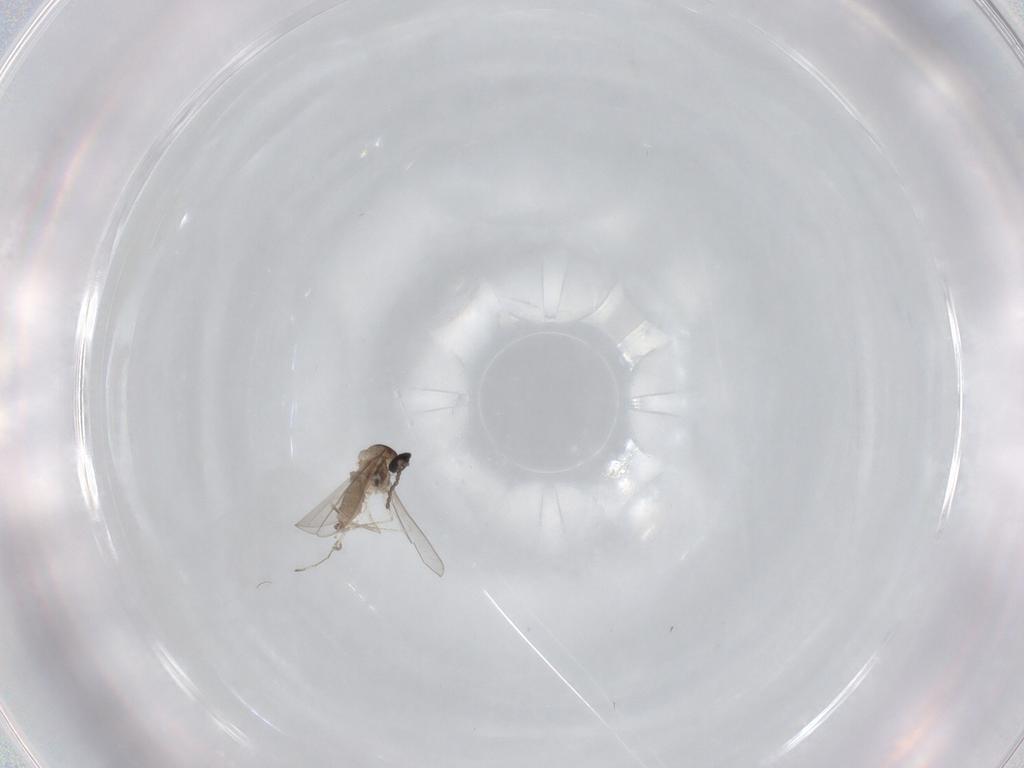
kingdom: Animalia
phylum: Arthropoda
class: Insecta
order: Diptera
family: Cecidomyiidae
